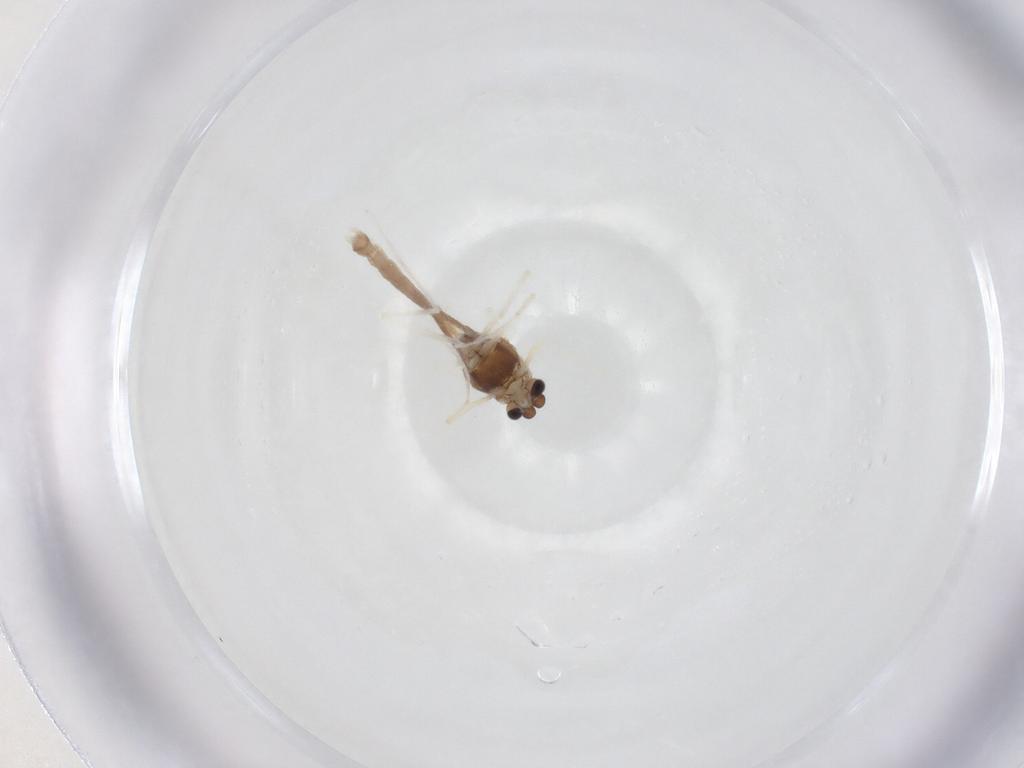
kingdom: Animalia
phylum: Arthropoda
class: Insecta
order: Diptera
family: Chironomidae
